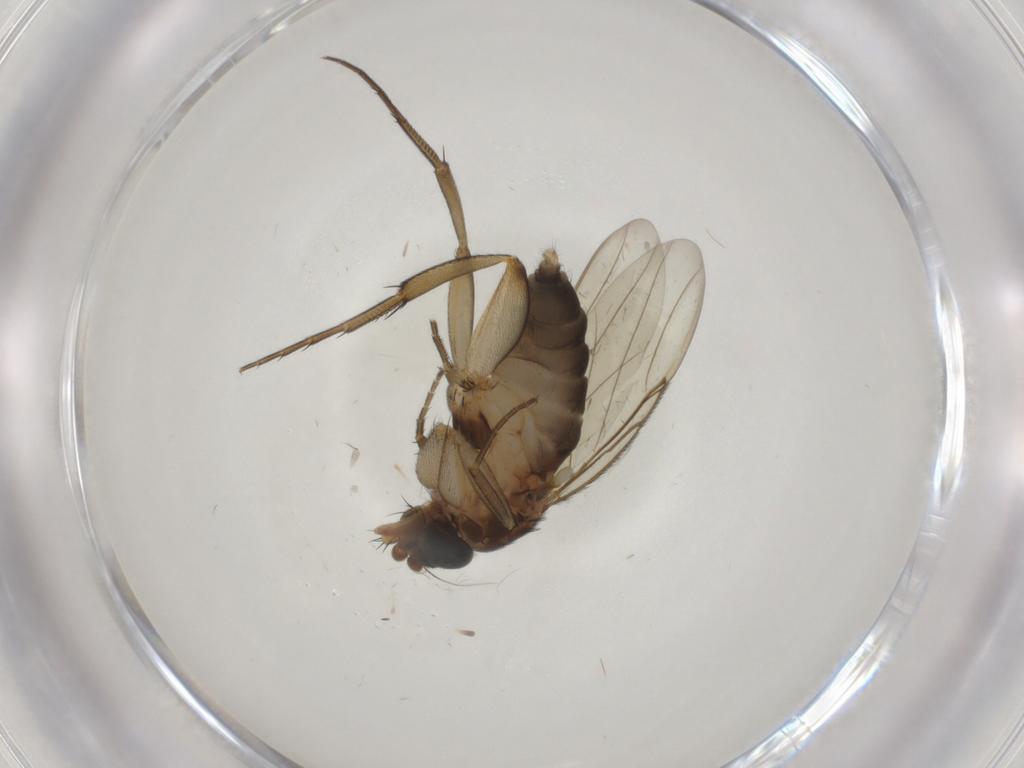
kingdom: Animalia
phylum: Arthropoda
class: Insecta
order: Diptera
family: Phoridae
